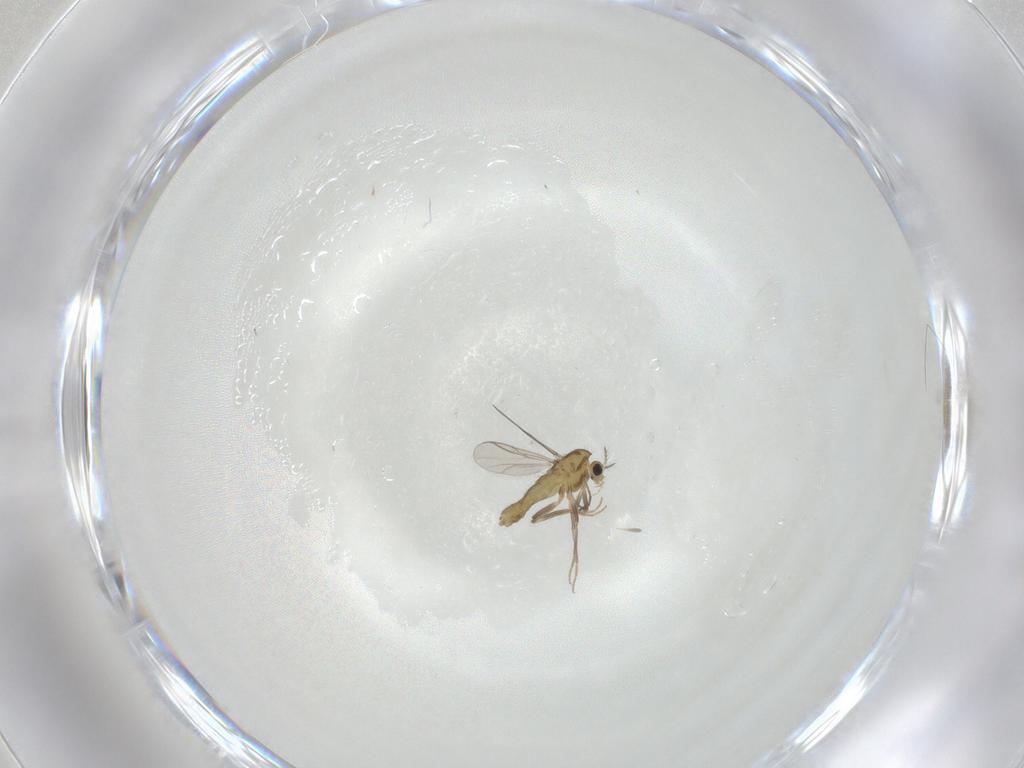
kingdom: Animalia
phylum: Arthropoda
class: Insecta
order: Diptera
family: Chironomidae
